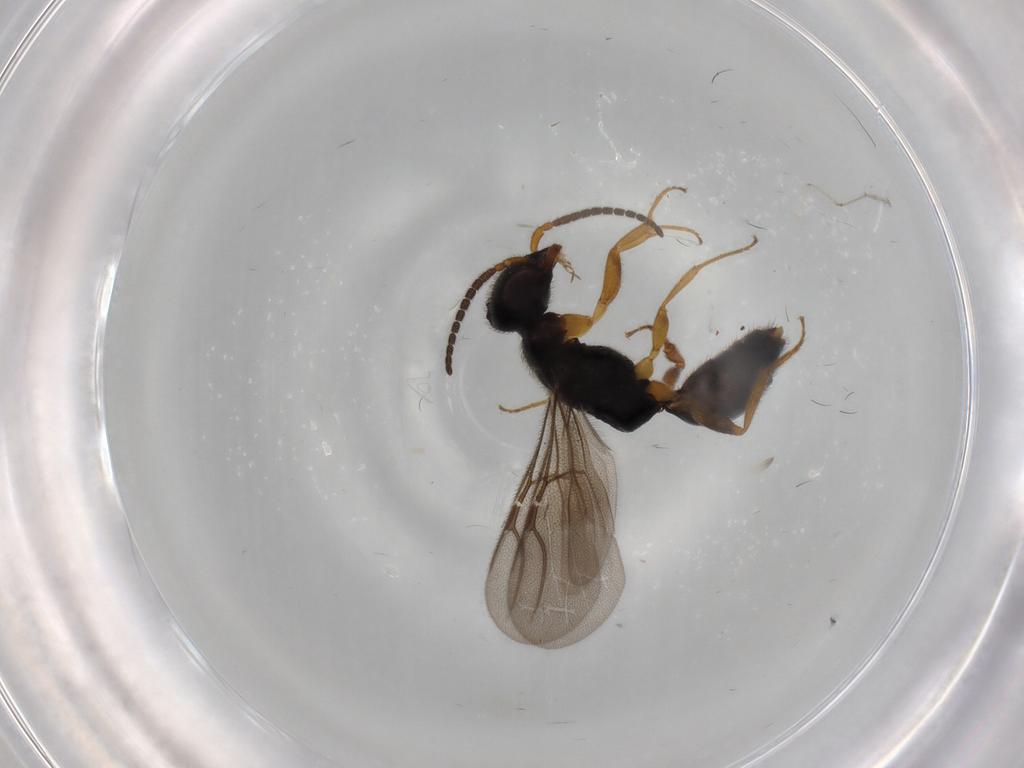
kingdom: Animalia
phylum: Arthropoda
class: Insecta
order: Hymenoptera
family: Bethylidae
